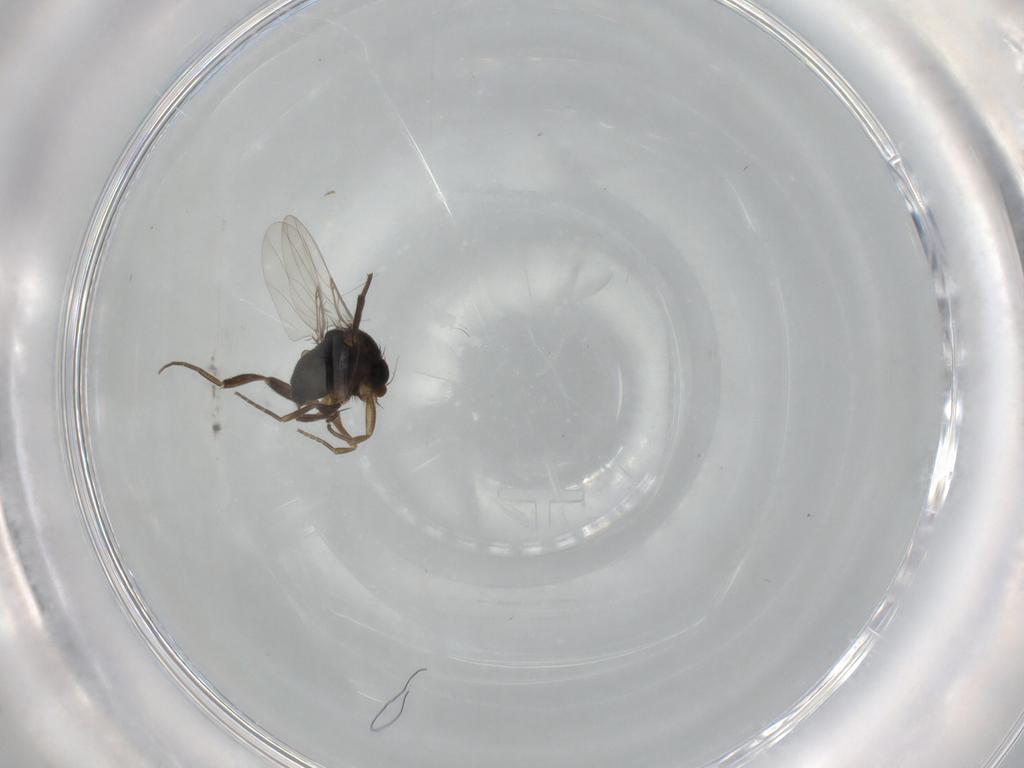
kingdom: Animalia
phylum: Arthropoda
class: Insecta
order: Diptera
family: Phoridae
